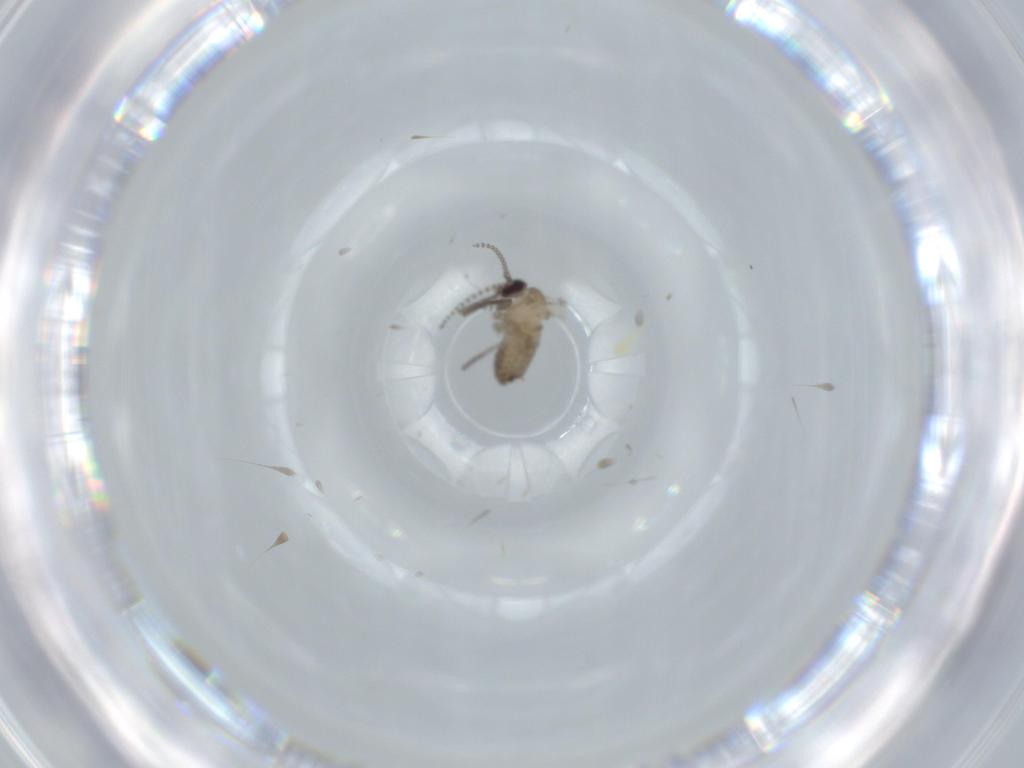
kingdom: Animalia
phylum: Arthropoda
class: Insecta
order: Diptera
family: Psychodidae
